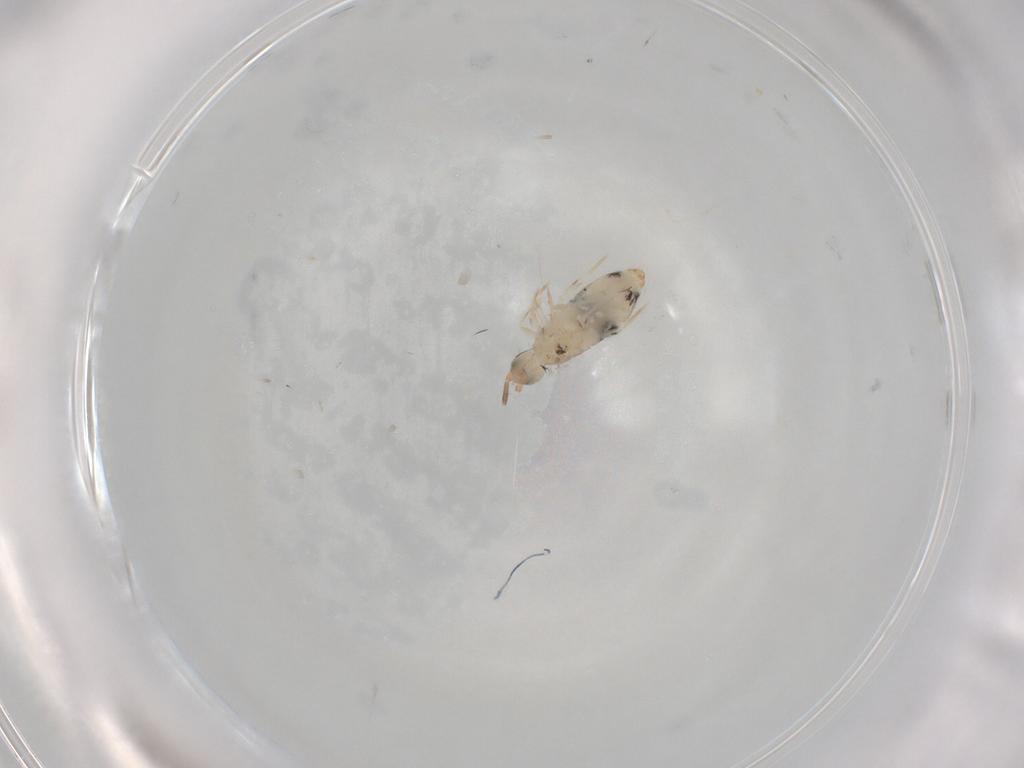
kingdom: Animalia
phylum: Arthropoda
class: Collembola
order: Entomobryomorpha
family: Entomobryidae
